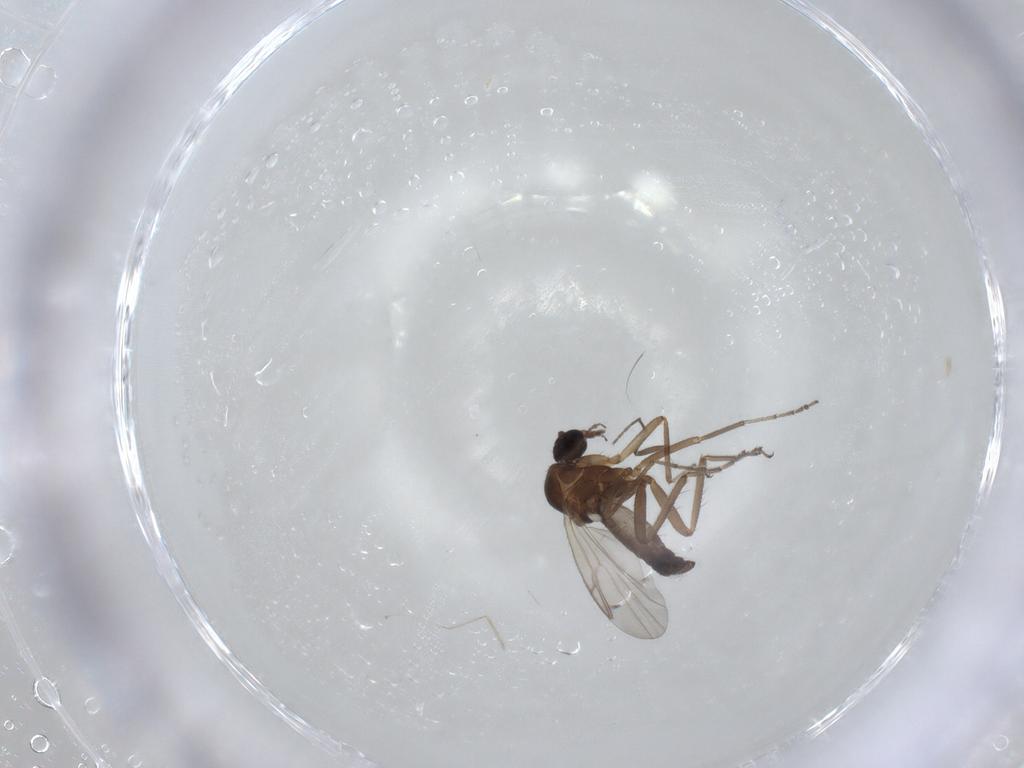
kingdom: Animalia
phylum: Arthropoda
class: Insecta
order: Diptera
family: Ceratopogonidae
